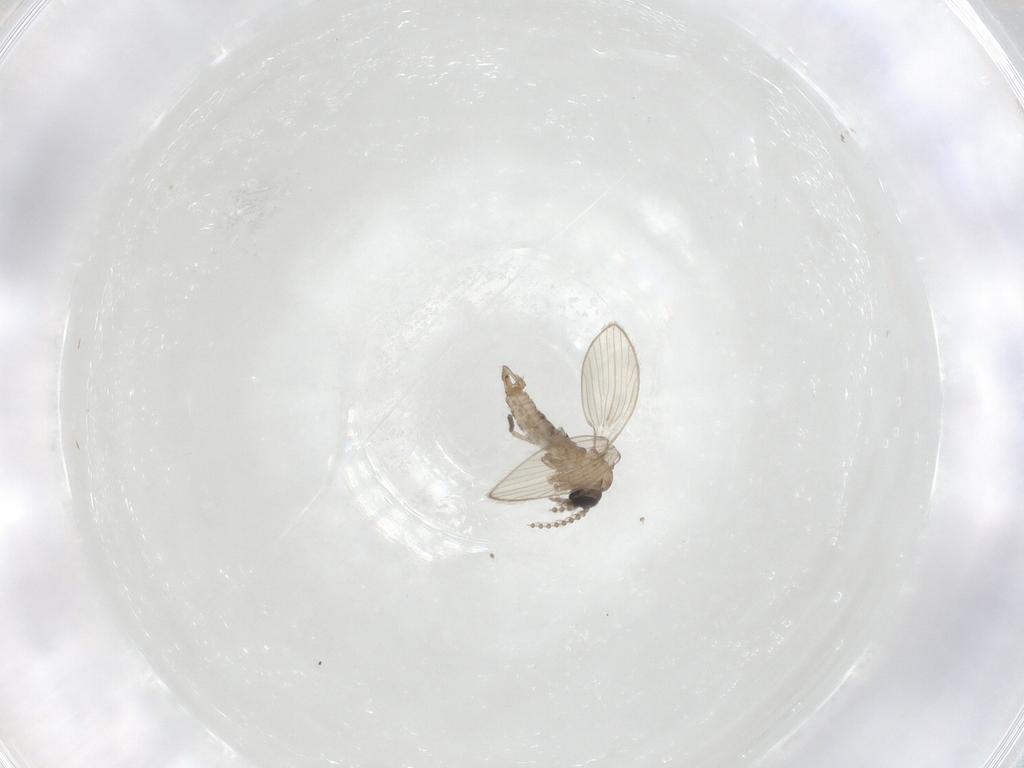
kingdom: Animalia
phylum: Arthropoda
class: Insecta
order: Diptera
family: Psychodidae
